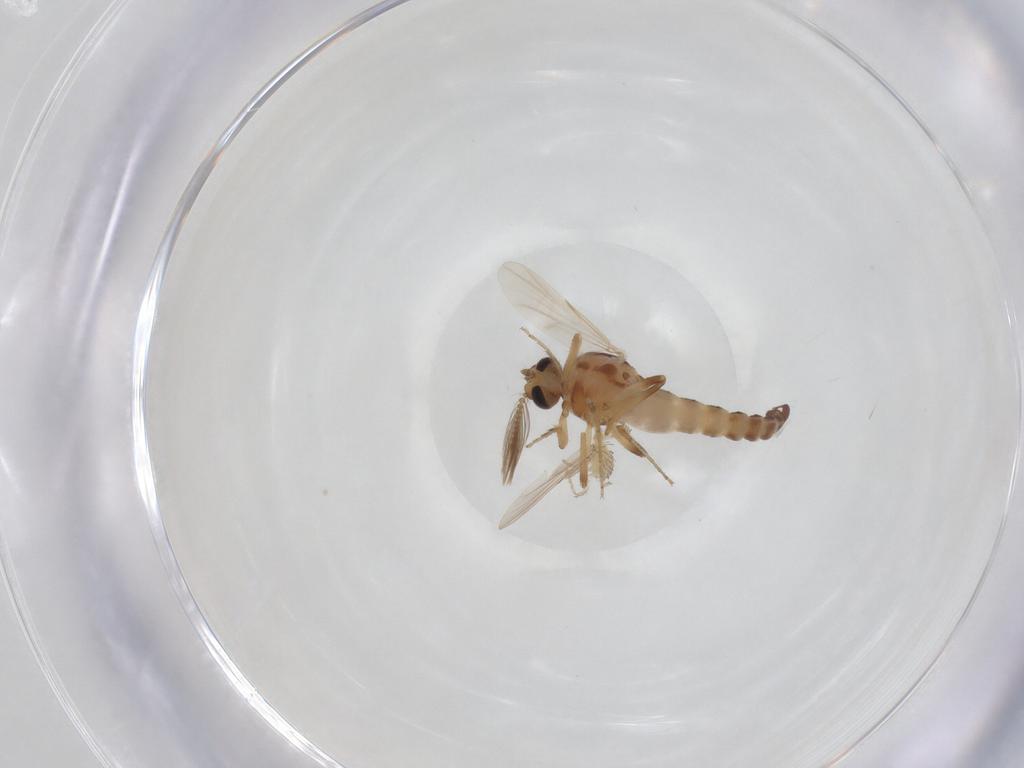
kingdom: Animalia
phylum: Arthropoda
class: Insecta
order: Diptera
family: Ceratopogonidae
